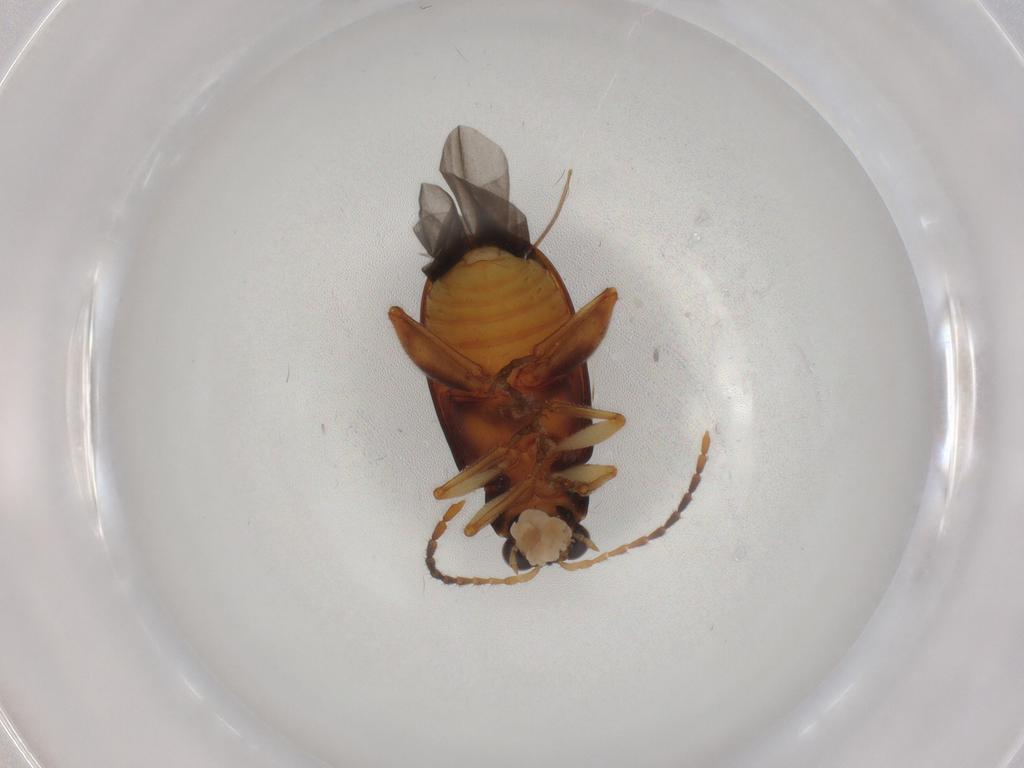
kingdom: Animalia
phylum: Arthropoda
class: Insecta
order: Coleoptera
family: Chrysomelidae
